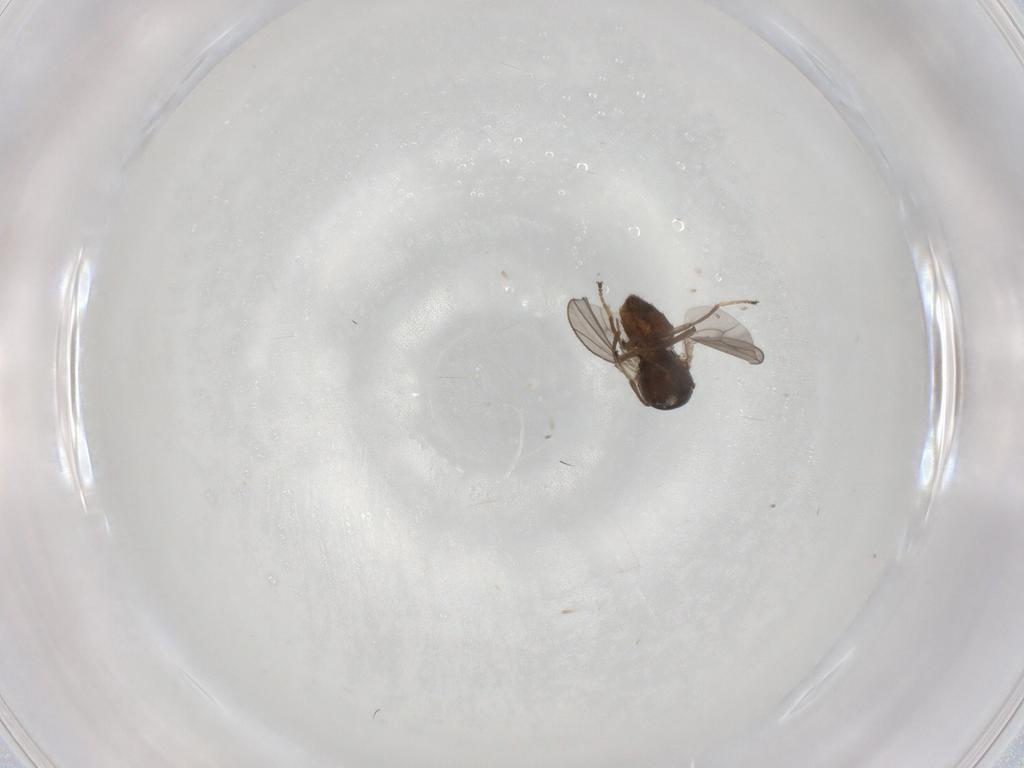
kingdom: Animalia
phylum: Arthropoda
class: Insecta
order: Diptera
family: Ephydridae
